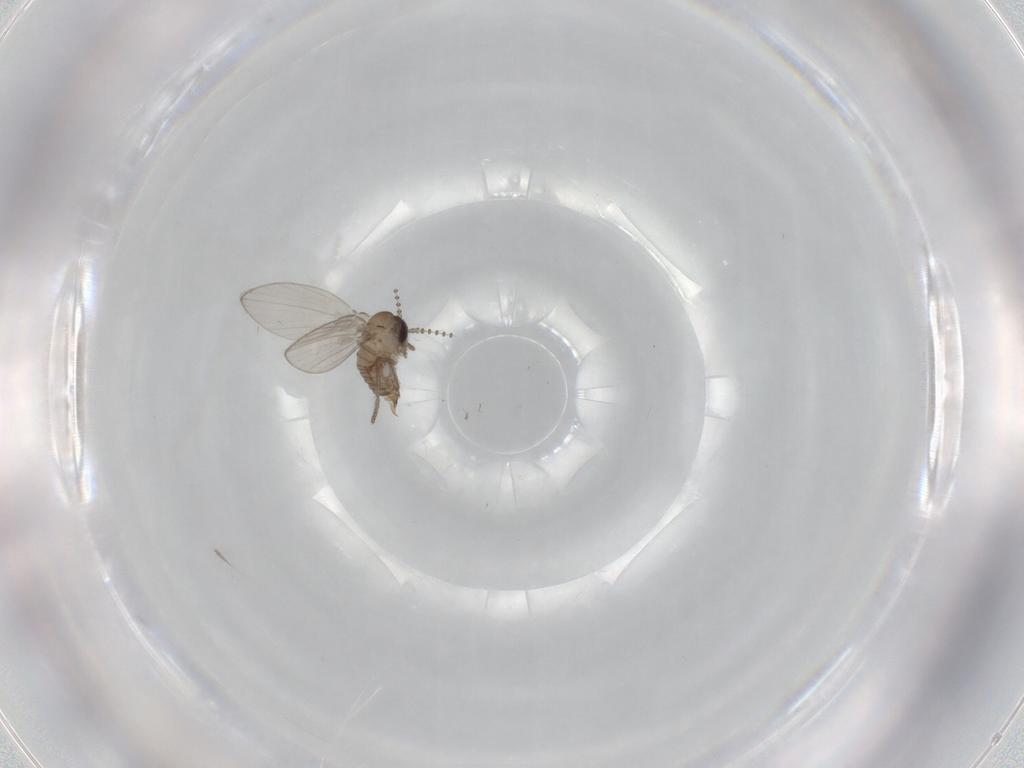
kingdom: Animalia
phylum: Arthropoda
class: Insecta
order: Diptera
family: Psychodidae
